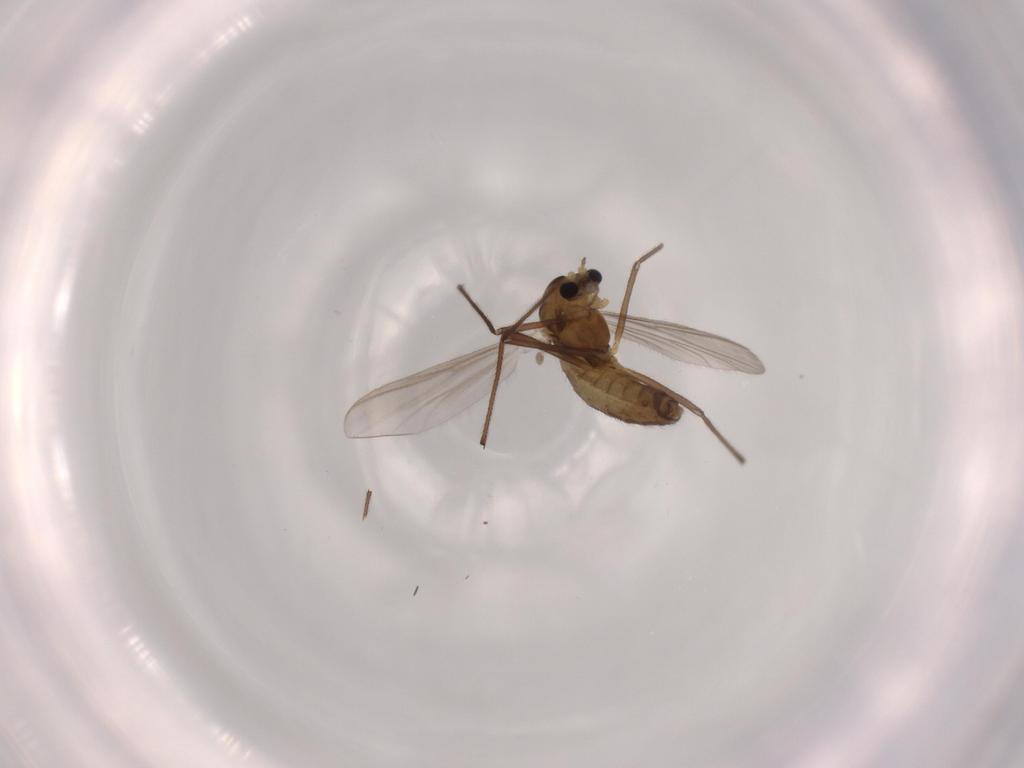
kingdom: Animalia
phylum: Arthropoda
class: Insecta
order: Diptera
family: Chironomidae
